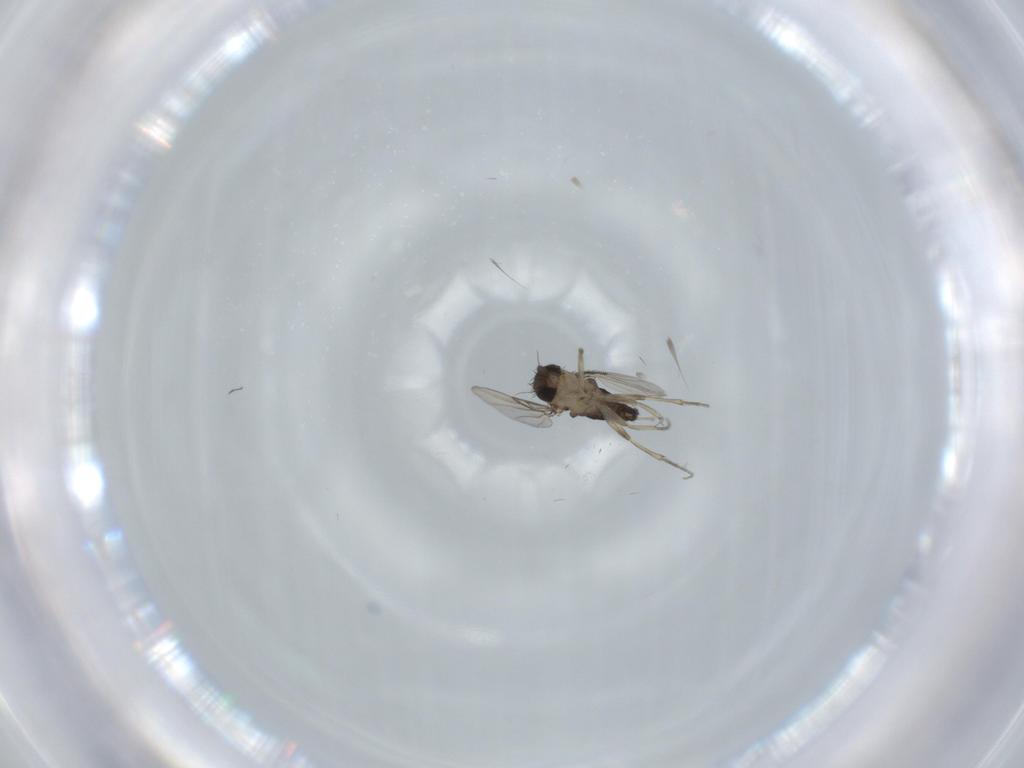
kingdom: Animalia
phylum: Arthropoda
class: Insecta
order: Diptera
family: Phoridae
